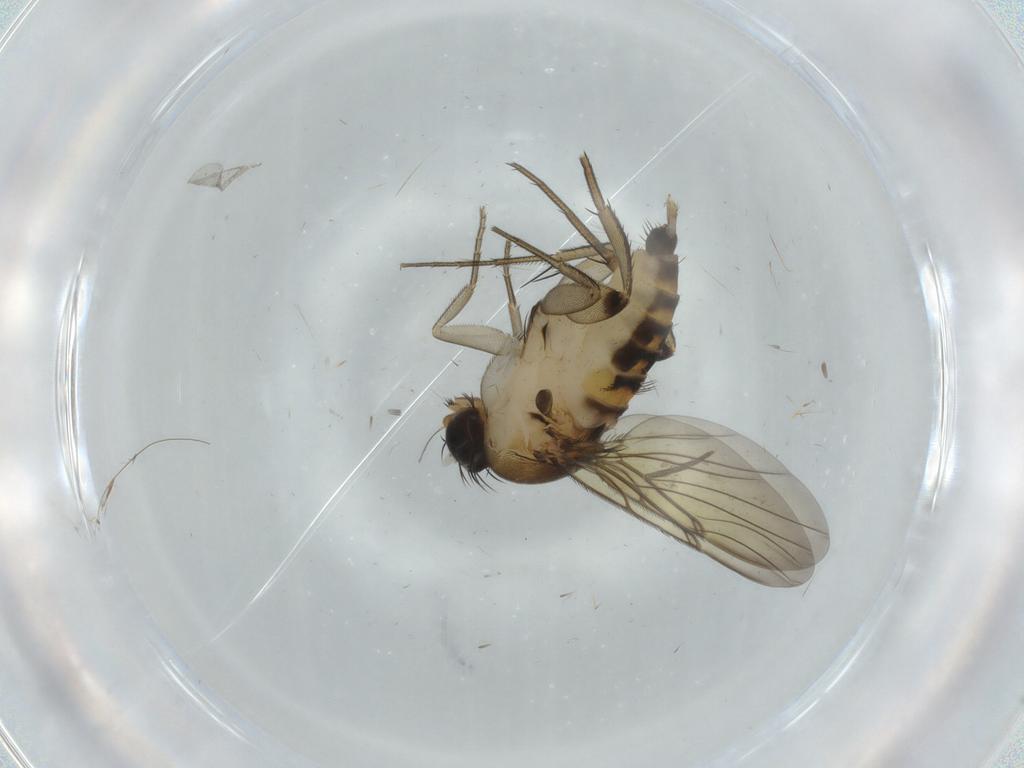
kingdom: Animalia
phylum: Arthropoda
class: Insecta
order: Diptera
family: Phoridae
